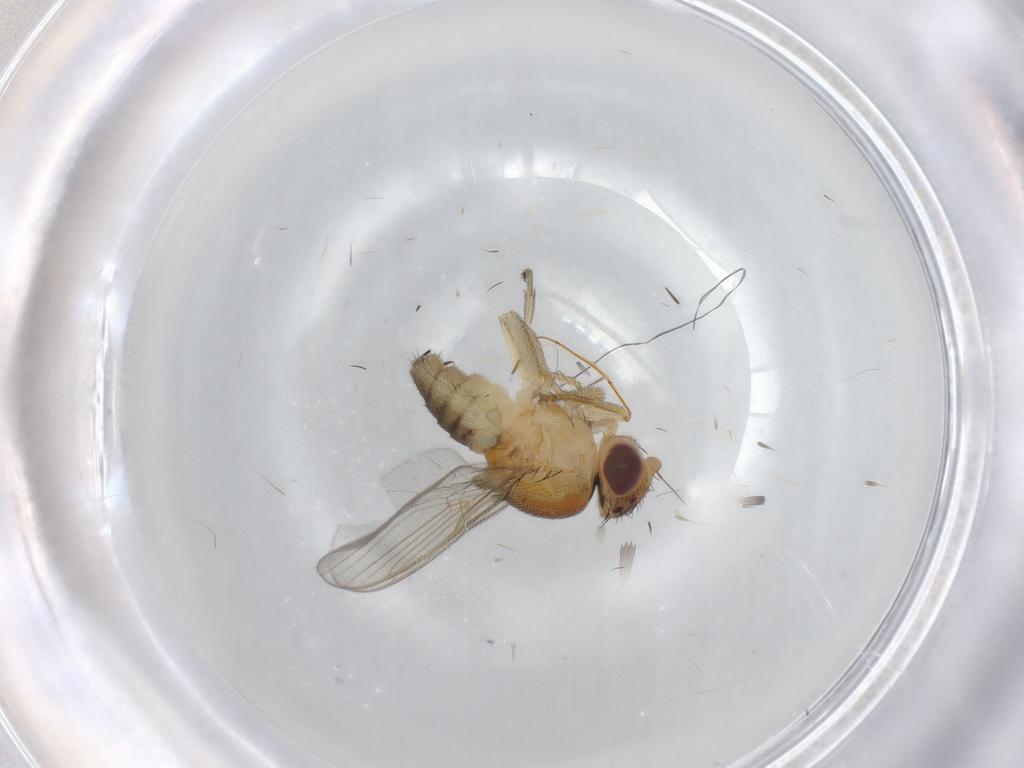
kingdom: Animalia
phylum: Arthropoda
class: Insecta
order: Diptera
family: Chloropidae
